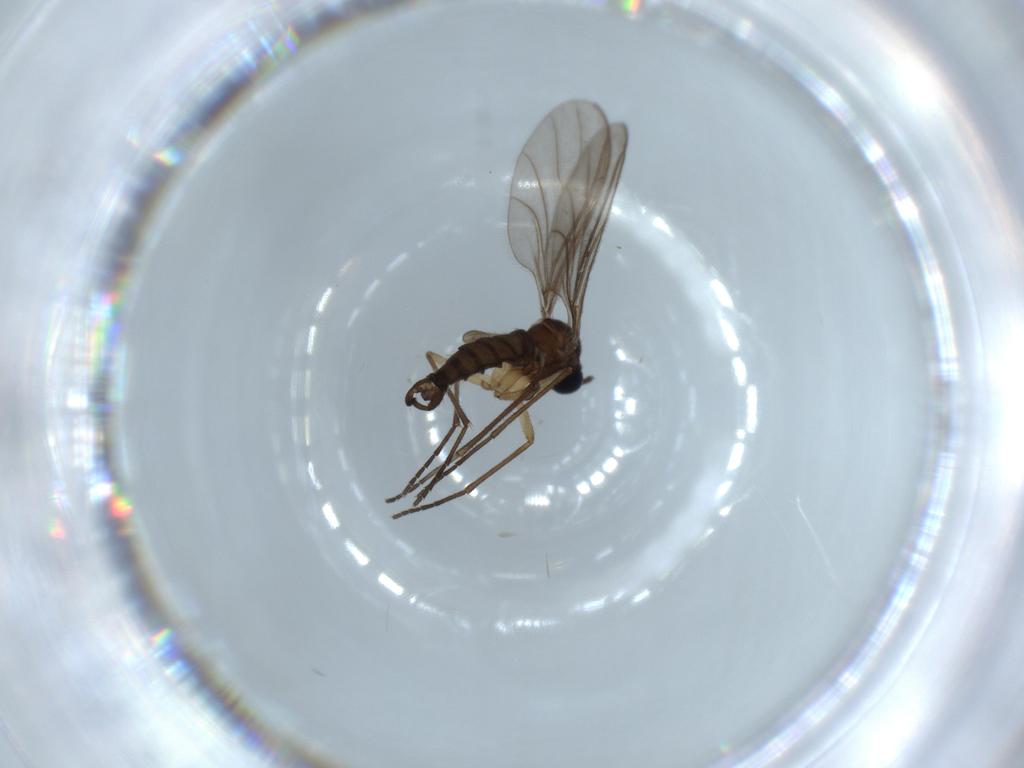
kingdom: Animalia
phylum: Arthropoda
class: Insecta
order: Diptera
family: Sciaridae
